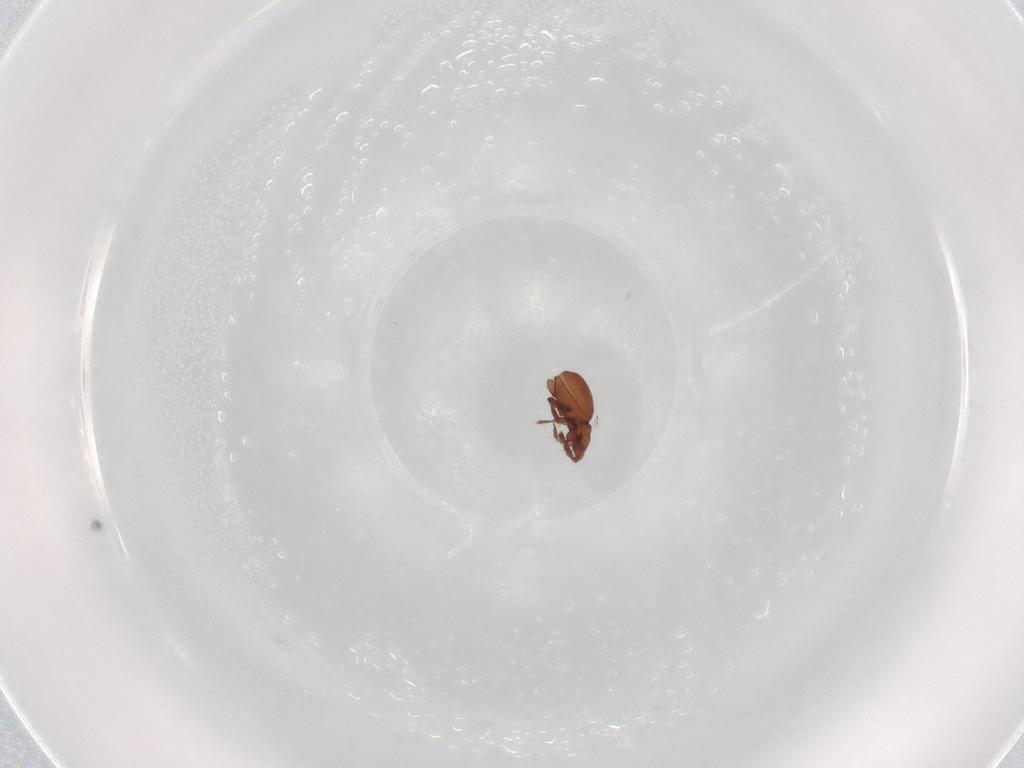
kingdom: Animalia
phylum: Arthropoda
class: Arachnida
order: Sarcoptiformes
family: Eremaeidae
